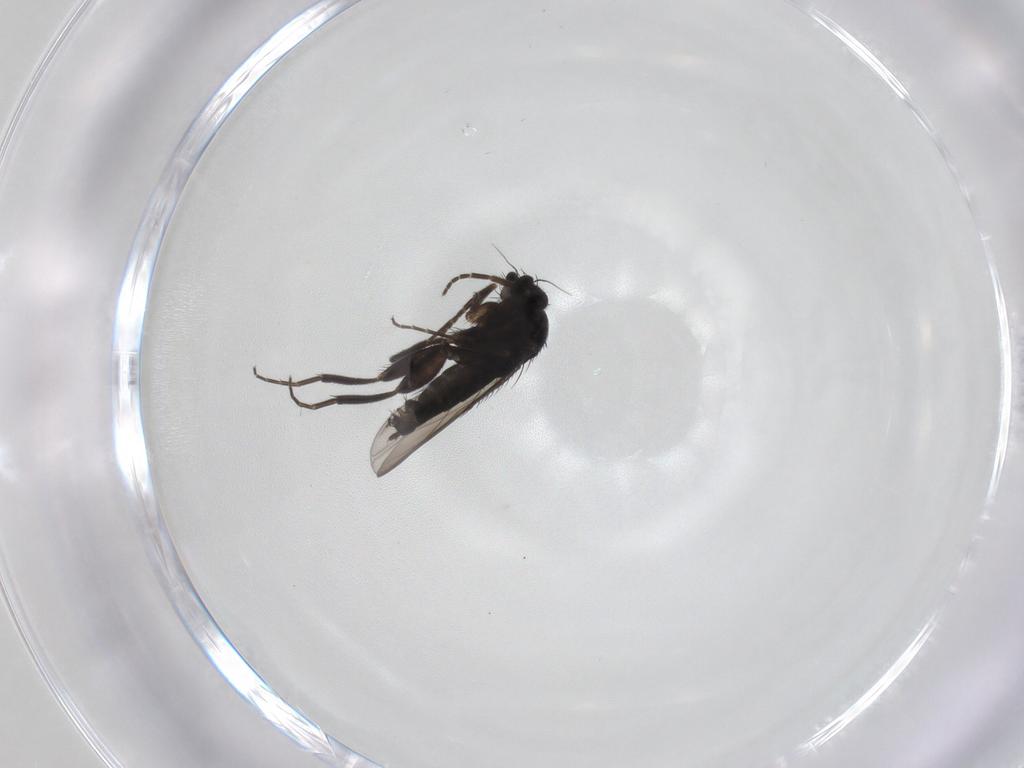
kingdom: Animalia
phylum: Arthropoda
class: Insecta
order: Diptera
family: Phoridae
